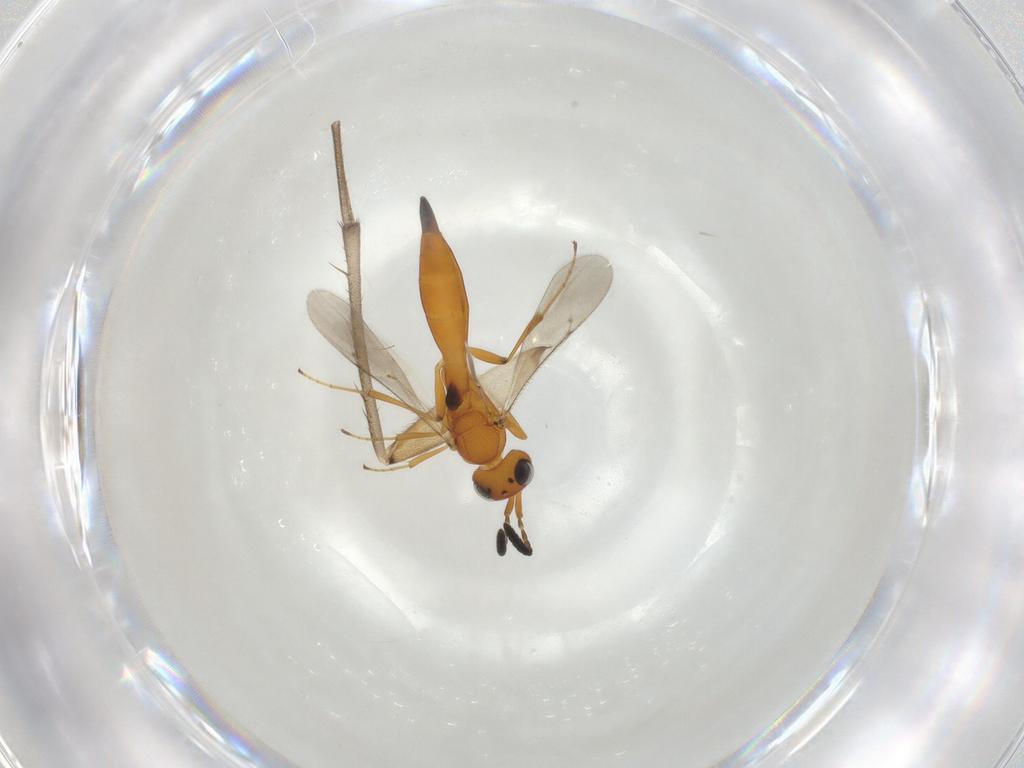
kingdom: Animalia
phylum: Arthropoda
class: Insecta
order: Hymenoptera
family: Scelionidae
